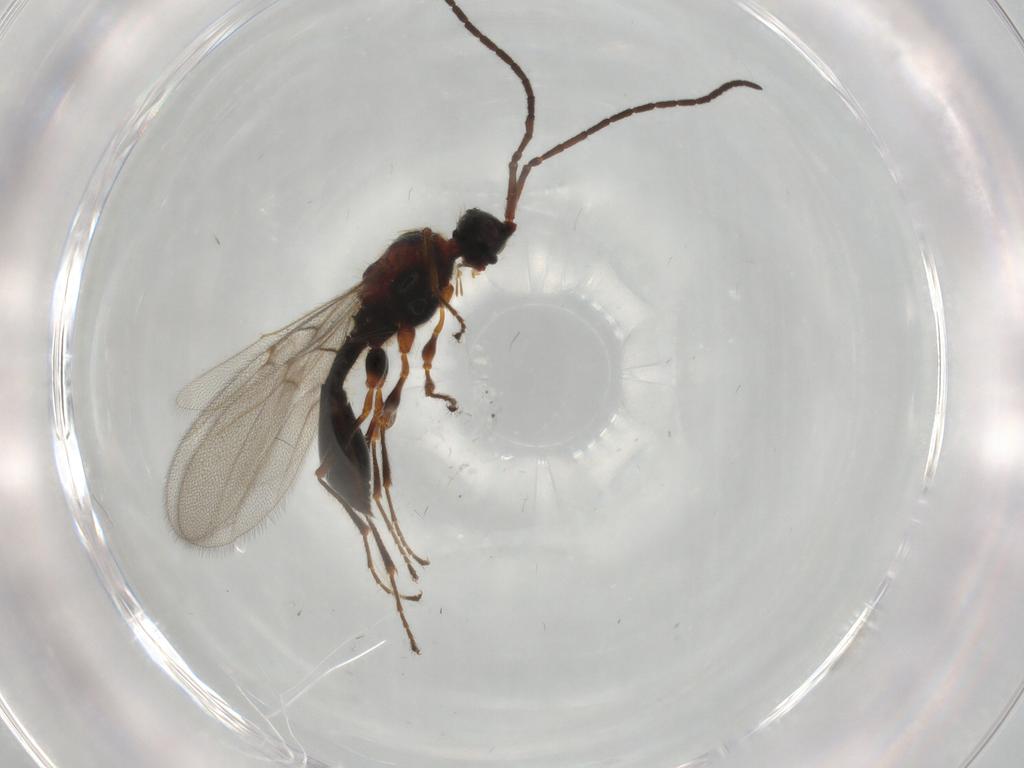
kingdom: Animalia
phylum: Arthropoda
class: Insecta
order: Hymenoptera
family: Diapriidae
